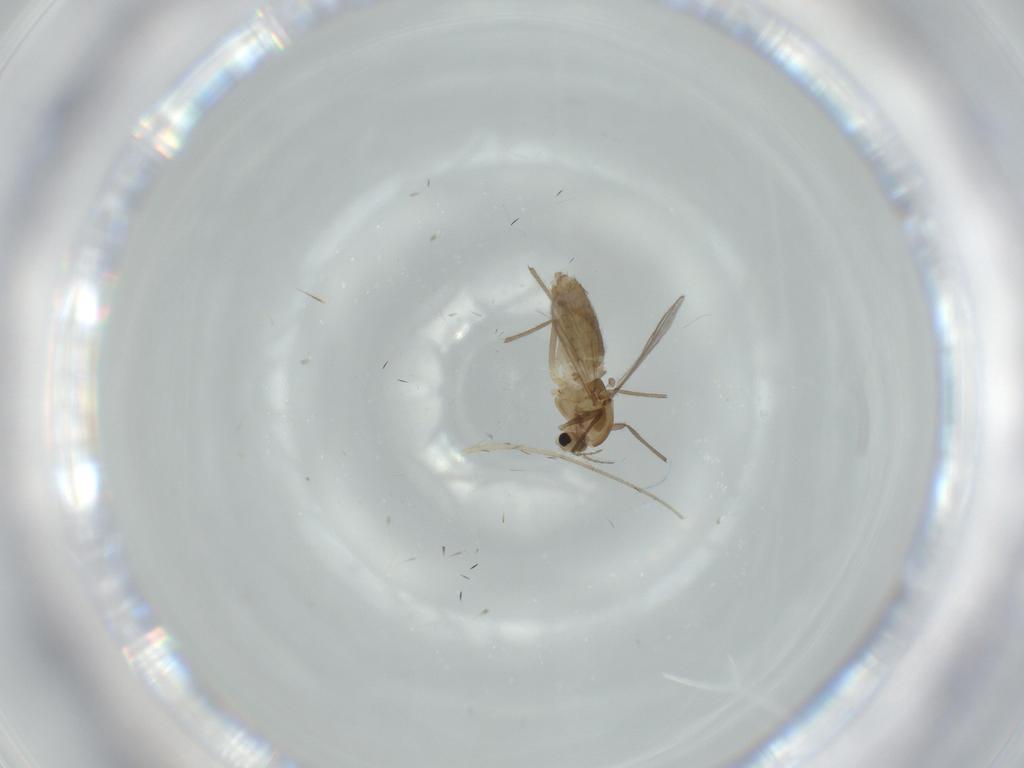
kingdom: Animalia
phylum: Arthropoda
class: Insecta
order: Diptera
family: Chironomidae
